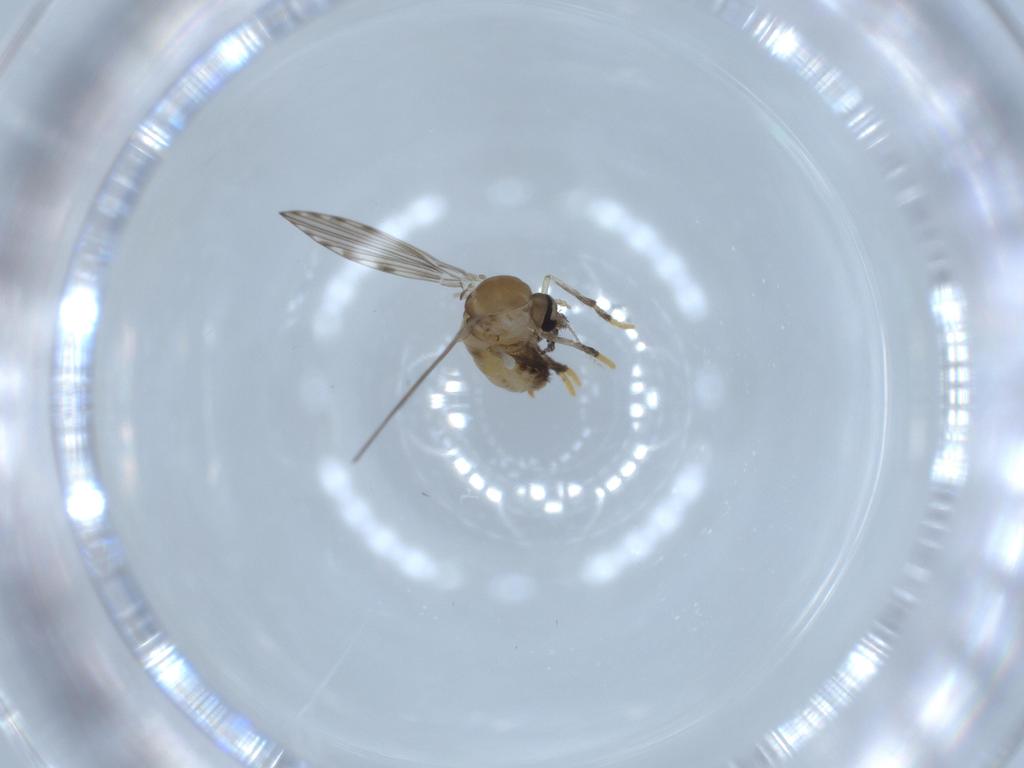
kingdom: Animalia
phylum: Arthropoda
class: Insecta
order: Diptera
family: Psychodidae
